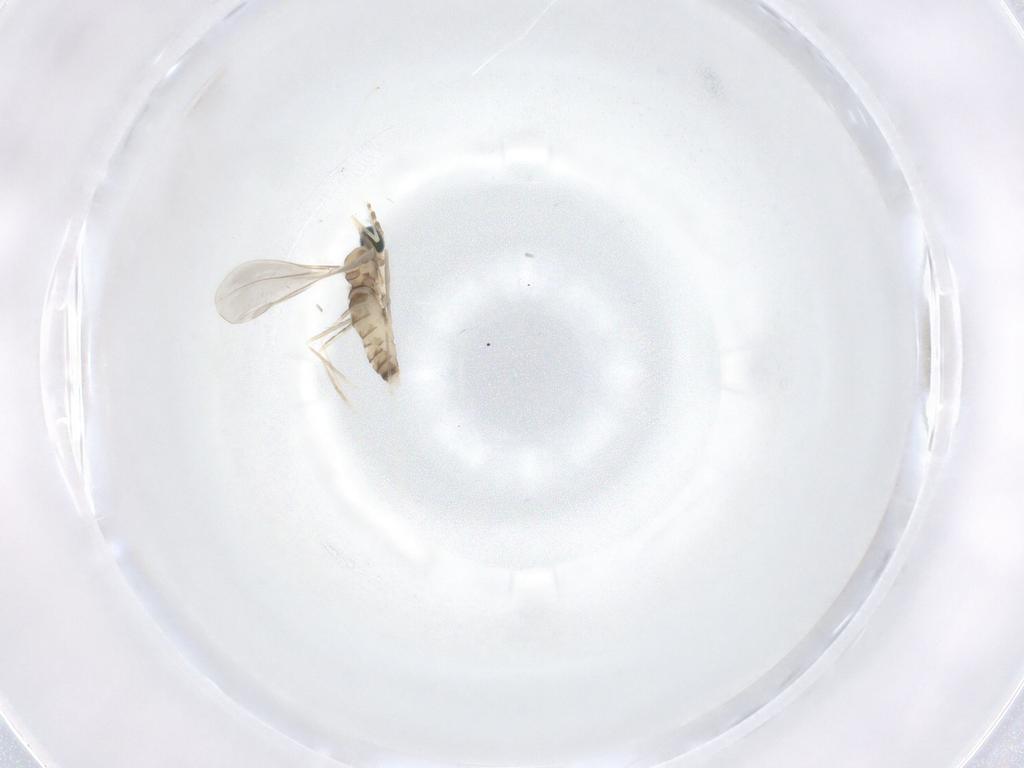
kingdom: Animalia
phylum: Arthropoda
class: Insecta
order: Diptera
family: Cecidomyiidae
